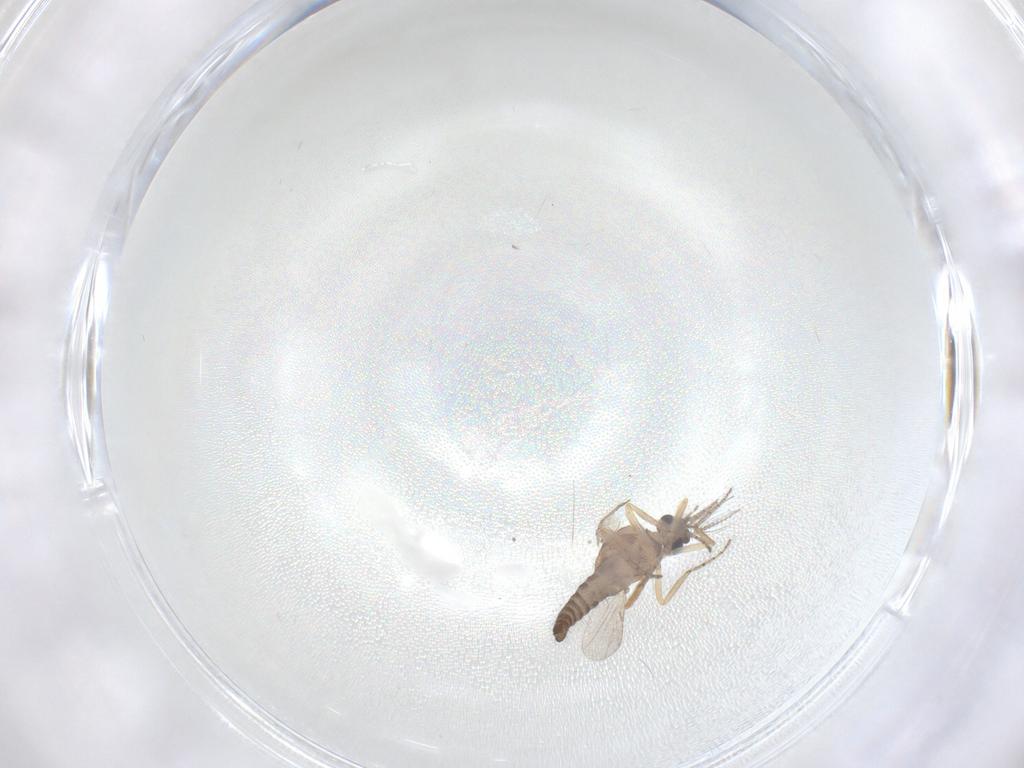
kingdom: Animalia
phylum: Arthropoda
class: Insecta
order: Diptera
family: Ceratopogonidae
